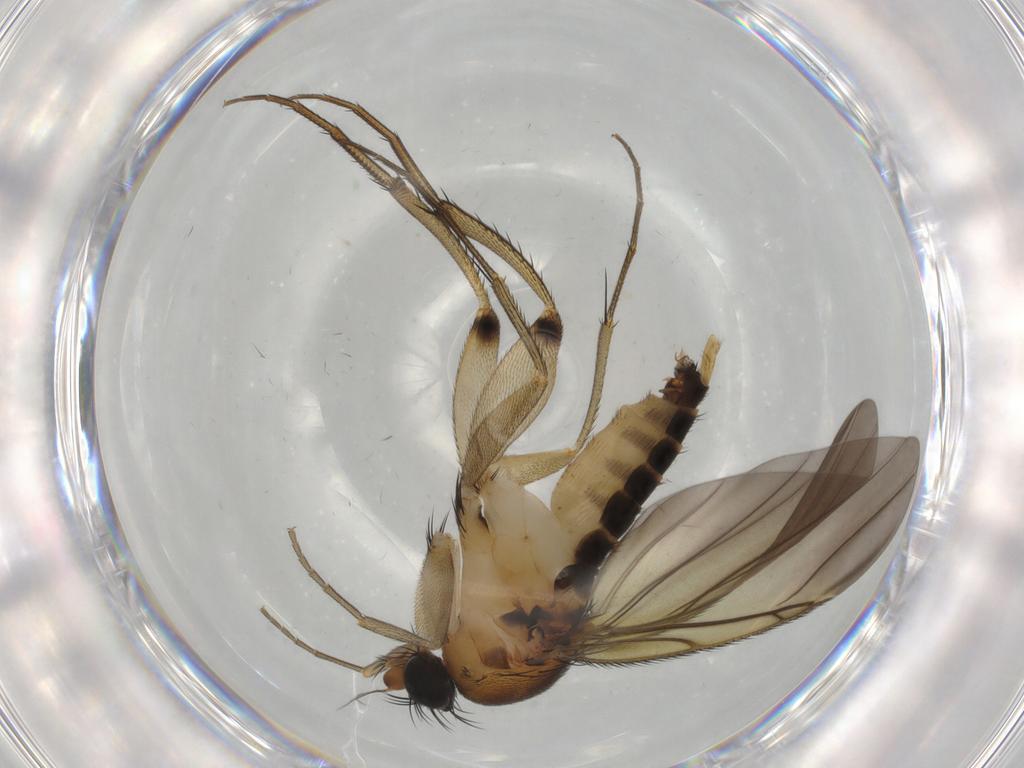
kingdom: Animalia
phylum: Arthropoda
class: Insecta
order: Diptera
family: Phoridae
